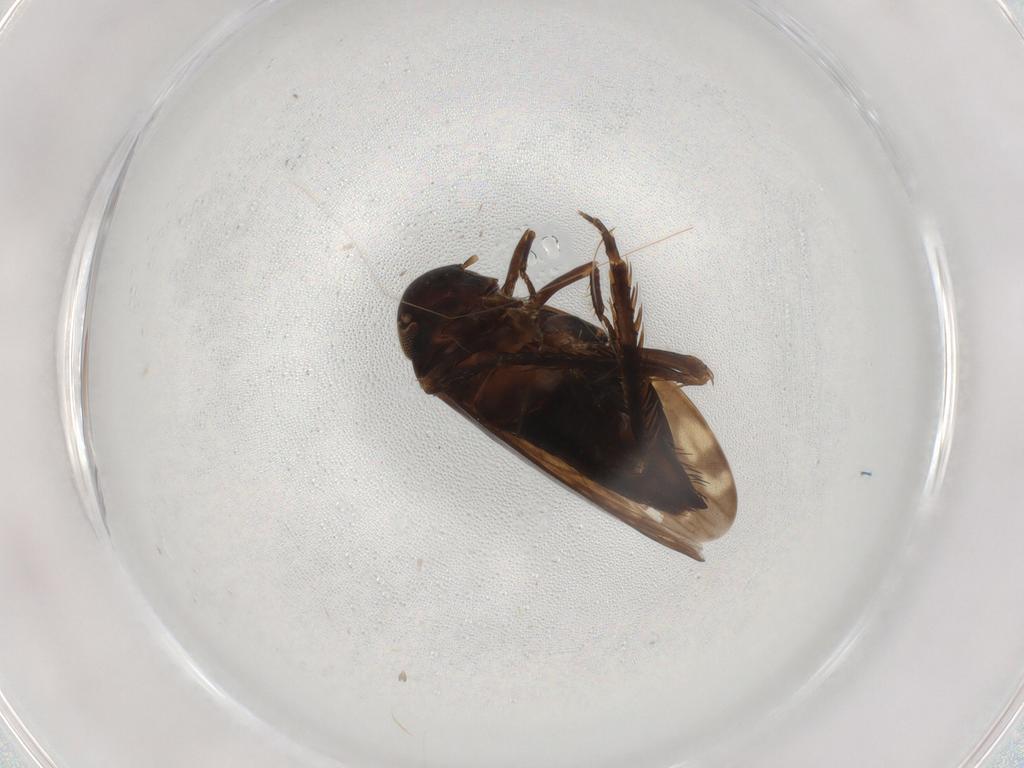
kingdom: Animalia
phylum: Arthropoda
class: Insecta
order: Hemiptera
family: Cicadellidae
